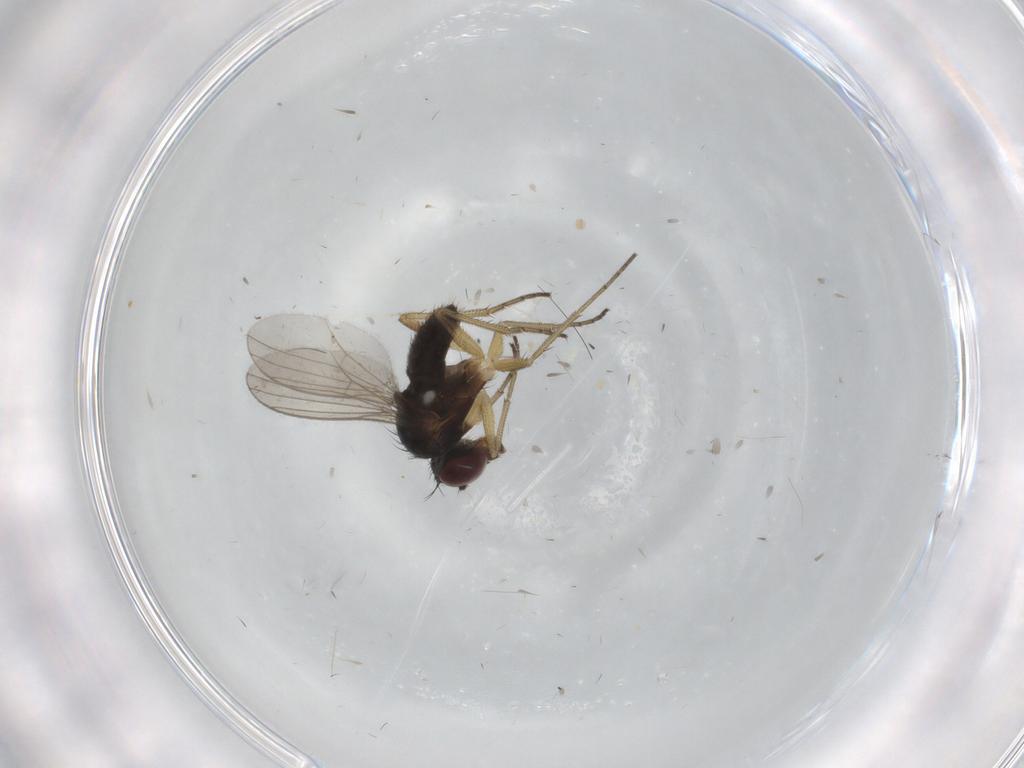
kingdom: Animalia
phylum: Arthropoda
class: Insecta
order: Diptera
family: Dolichopodidae
